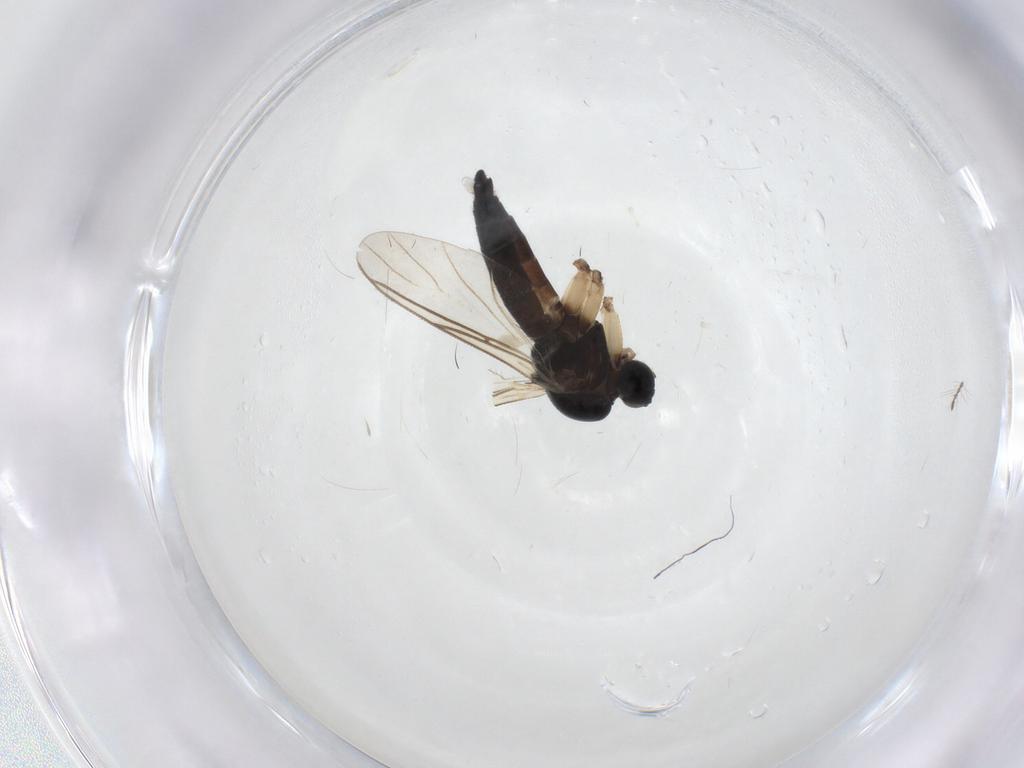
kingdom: Animalia
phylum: Arthropoda
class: Insecta
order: Diptera
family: Sciaridae
